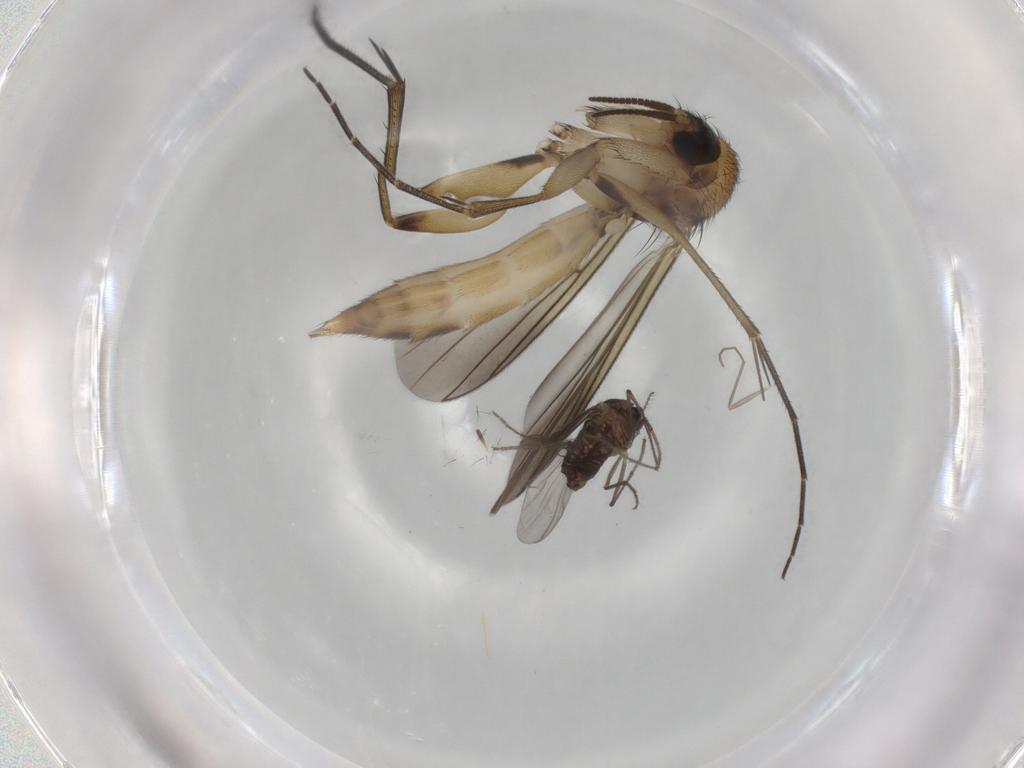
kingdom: Animalia
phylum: Arthropoda
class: Insecta
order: Diptera
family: Chironomidae
